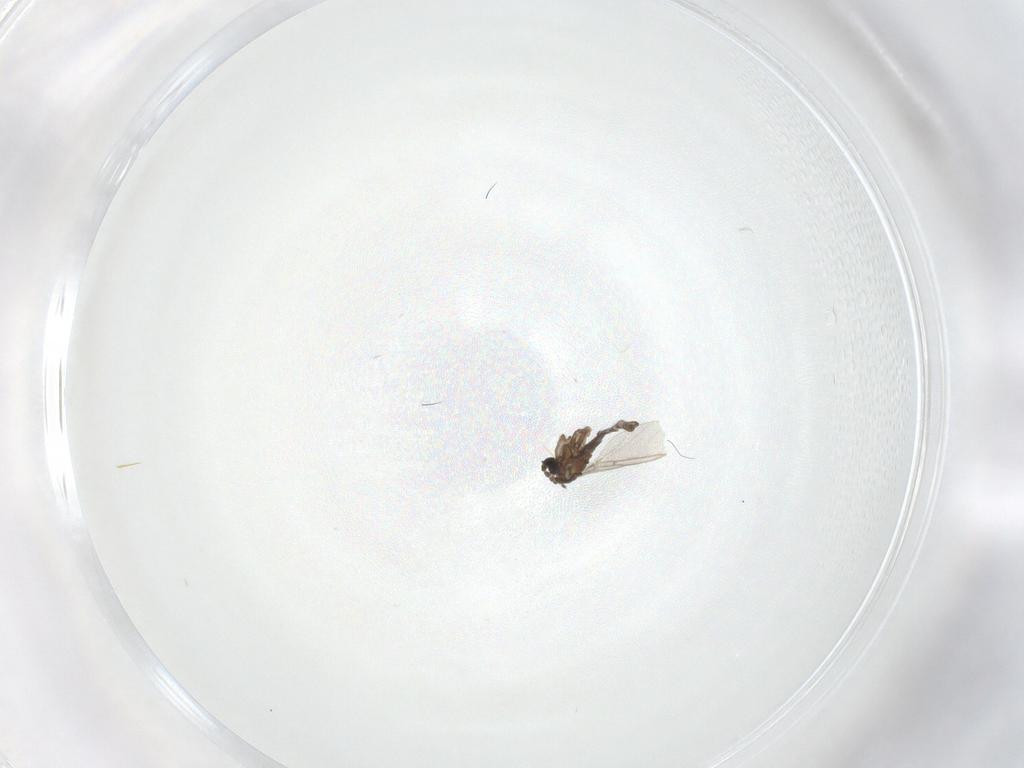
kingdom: Animalia
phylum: Arthropoda
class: Insecta
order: Diptera
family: Sciaridae
